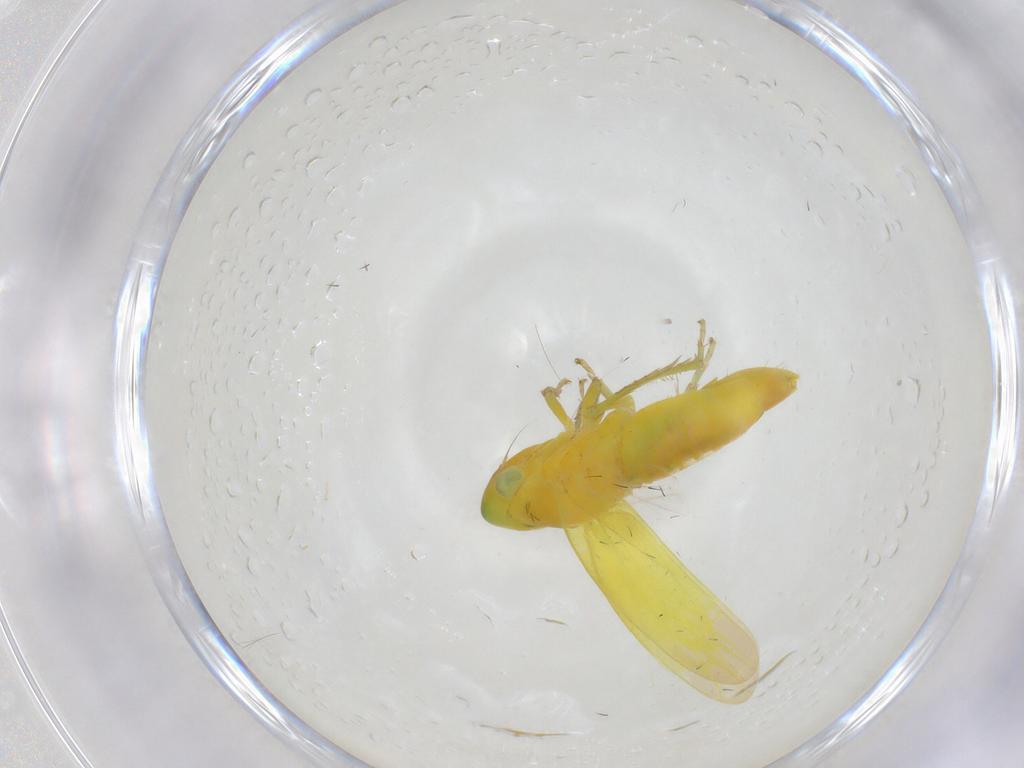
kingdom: Animalia
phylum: Arthropoda
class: Insecta
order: Hemiptera
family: Cicadellidae
